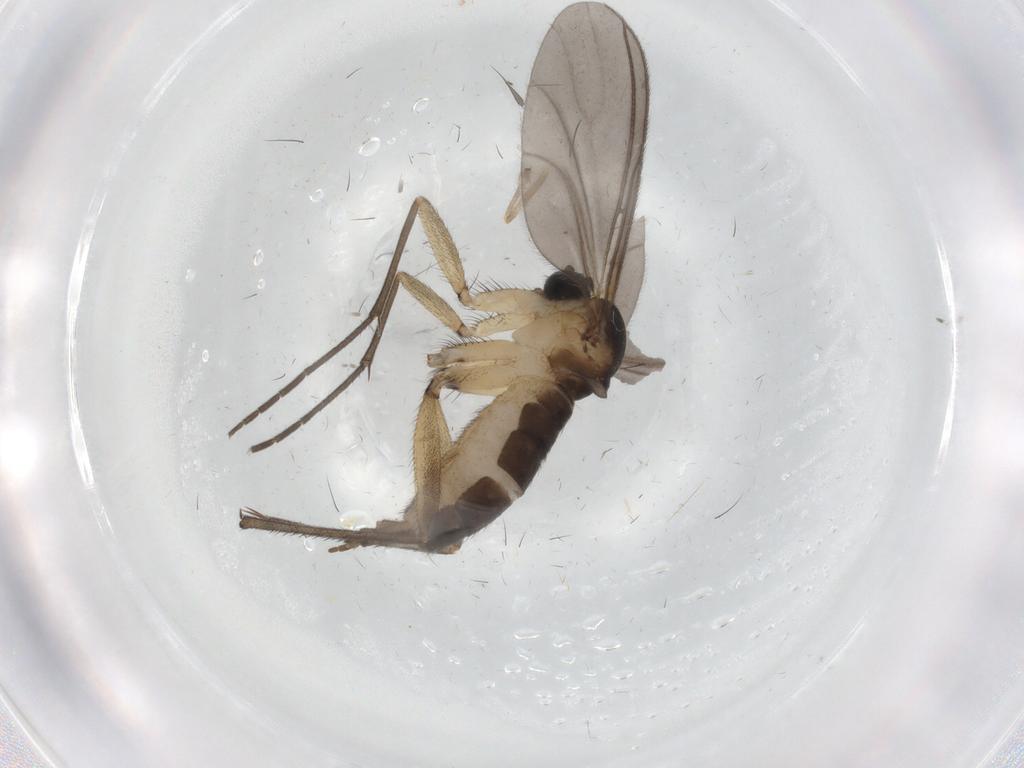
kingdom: Animalia
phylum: Arthropoda
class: Insecta
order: Diptera
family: Sciaridae
